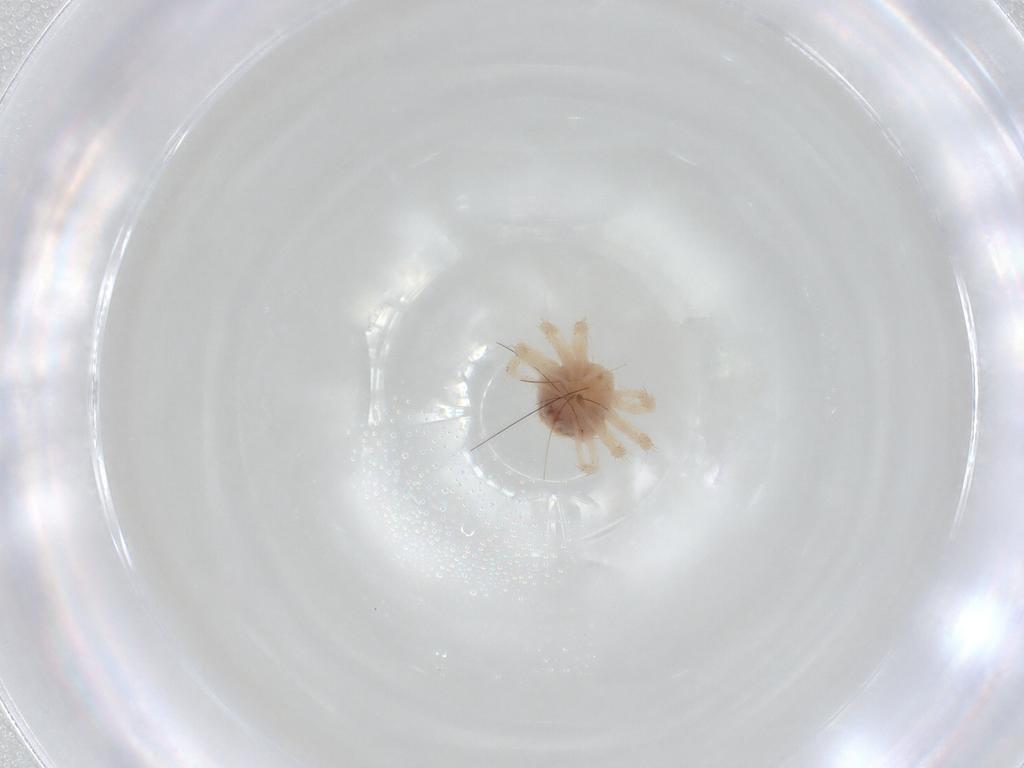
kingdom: Animalia
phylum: Arthropoda
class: Arachnida
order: Trombidiformes
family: Anystidae
